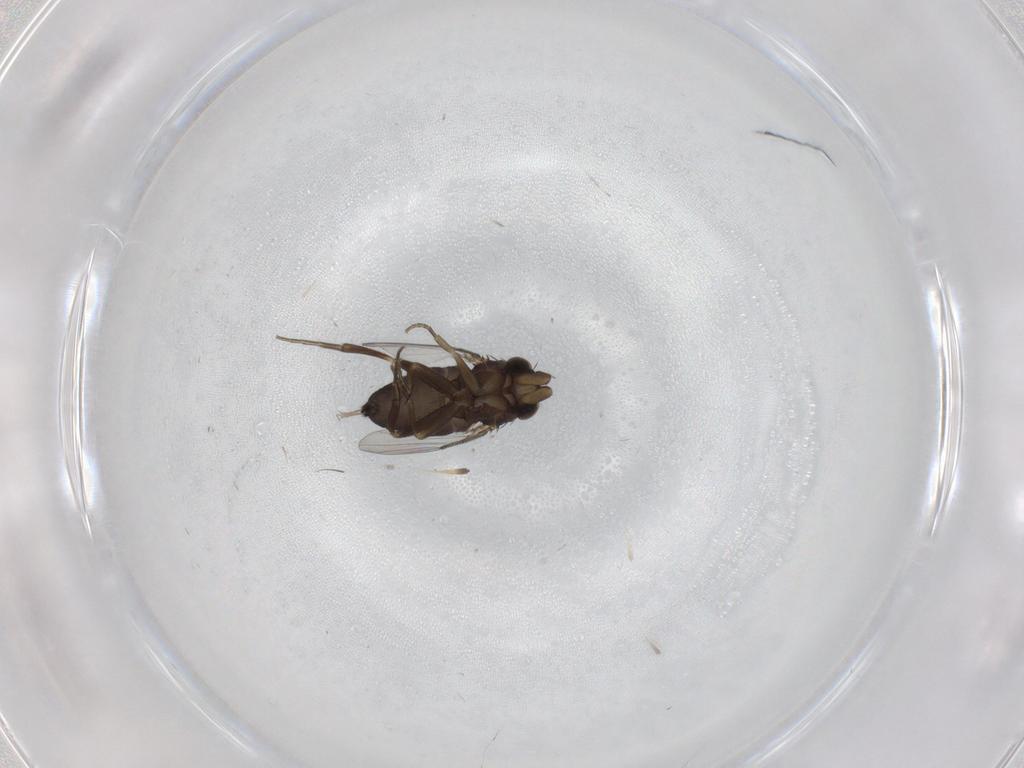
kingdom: Animalia
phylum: Arthropoda
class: Insecta
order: Diptera
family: Phoridae
